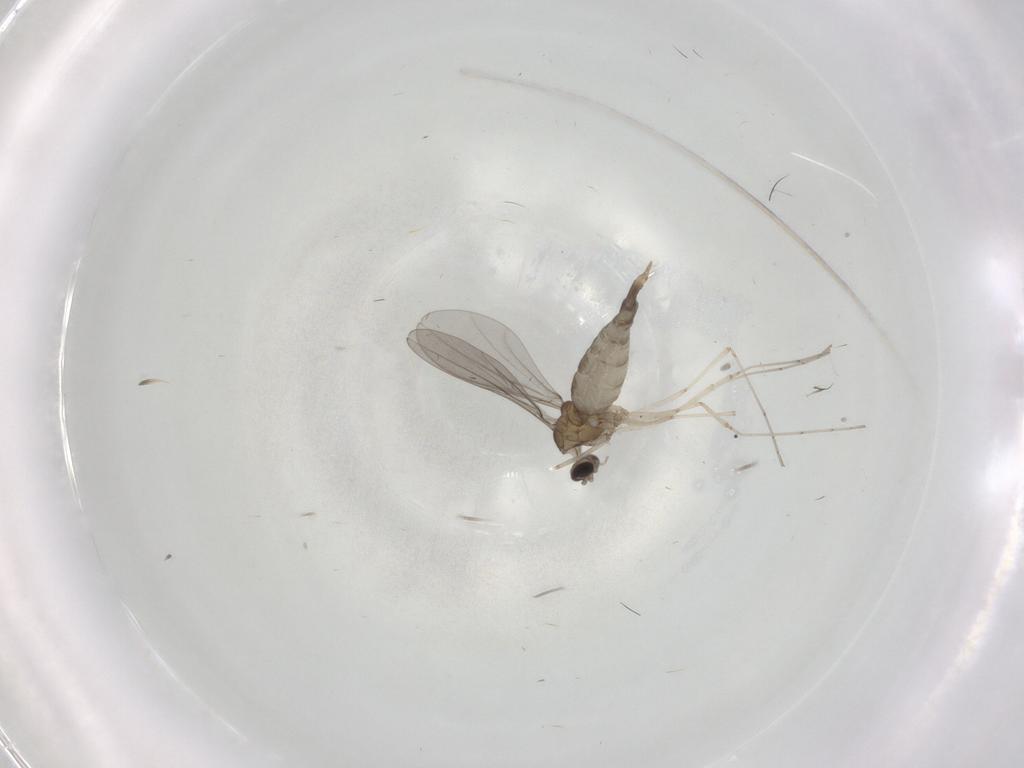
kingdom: Animalia
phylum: Arthropoda
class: Insecta
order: Diptera
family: Cecidomyiidae
